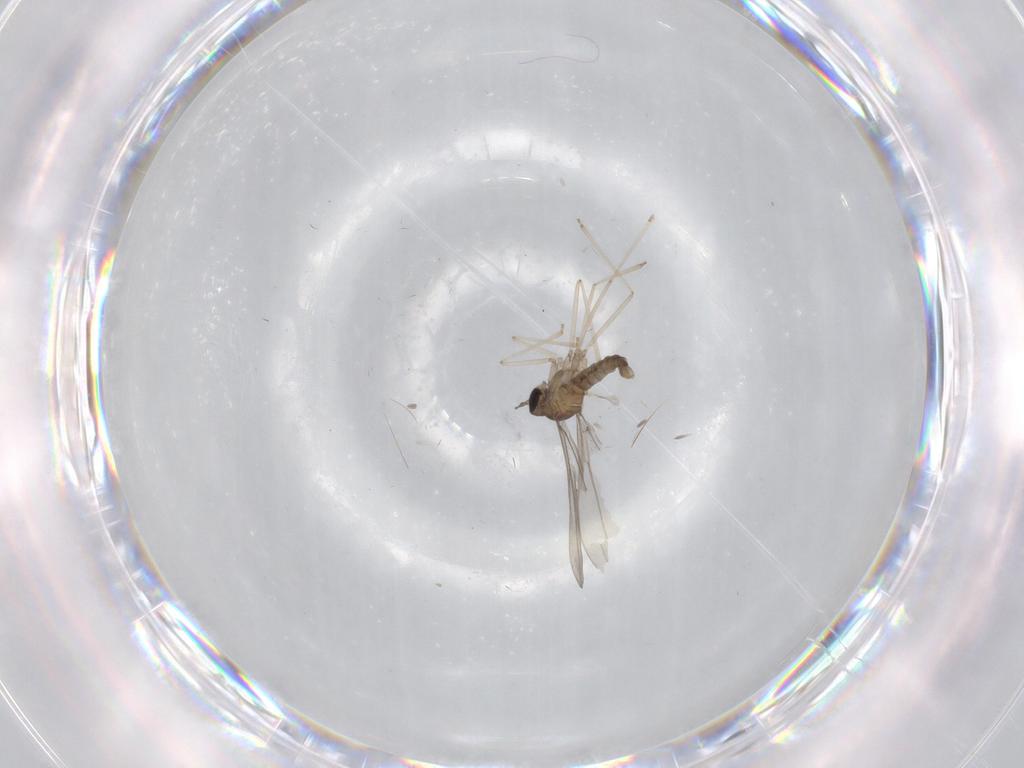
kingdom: Animalia
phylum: Arthropoda
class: Insecta
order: Diptera
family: Cecidomyiidae
